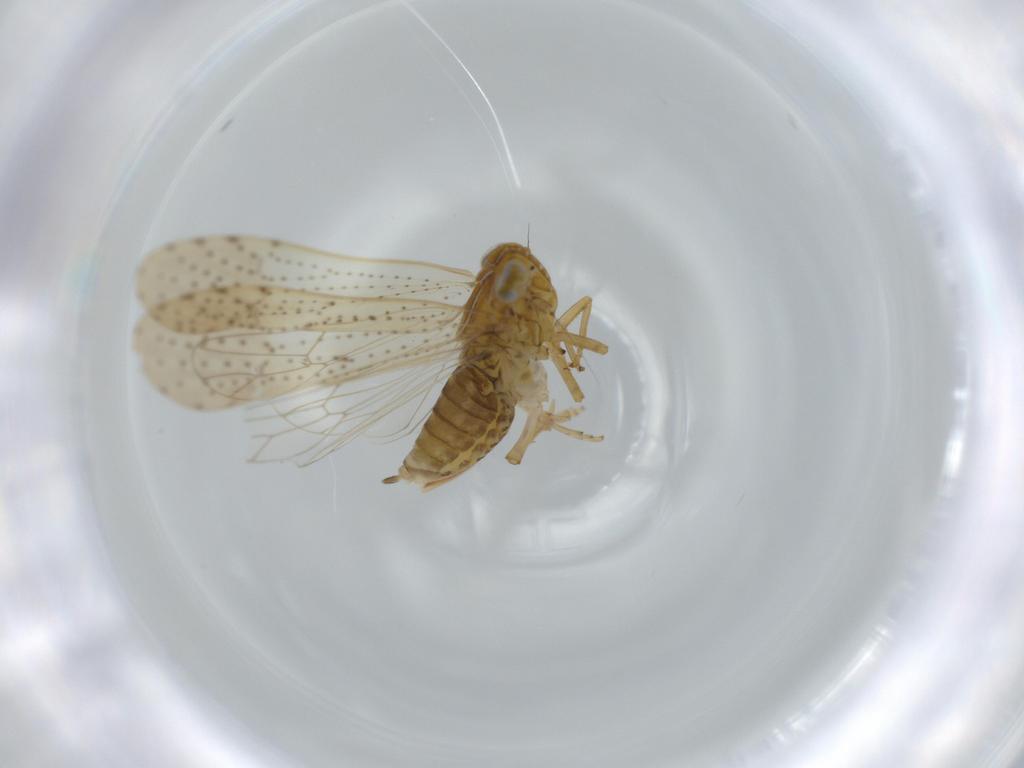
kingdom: Animalia
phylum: Arthropoda
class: Insecta
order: Hemiptera
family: Delphacidae
